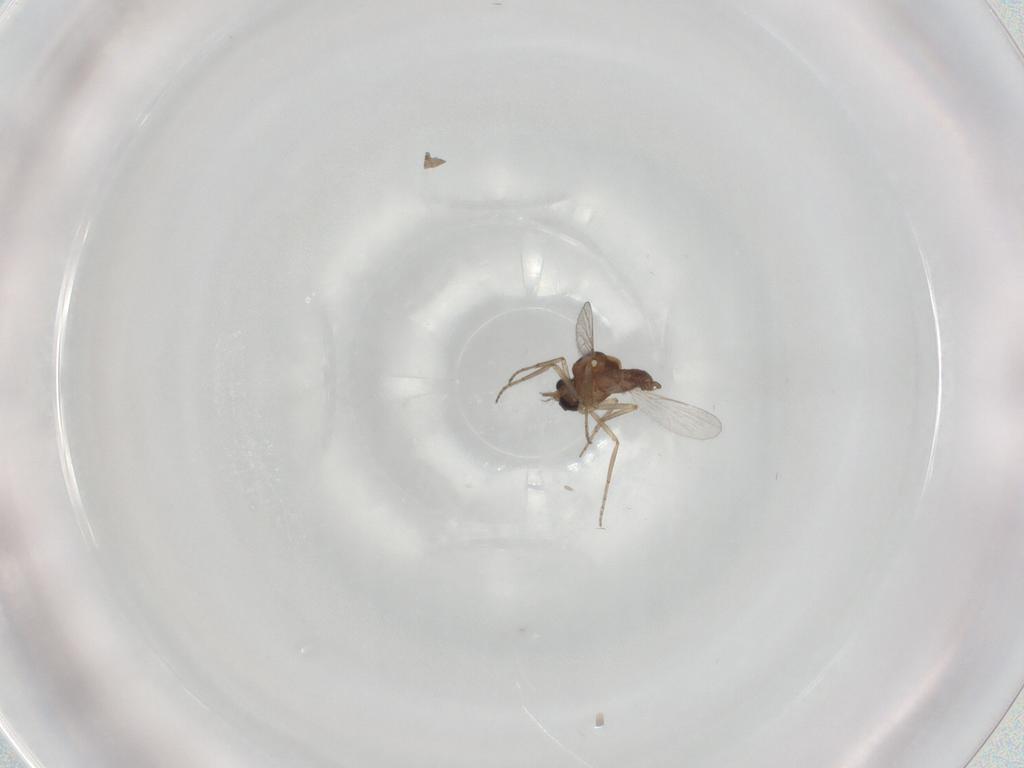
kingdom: Animalia
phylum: Arthropoda
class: Insecta
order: Diptera
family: Ceratopogonidae
